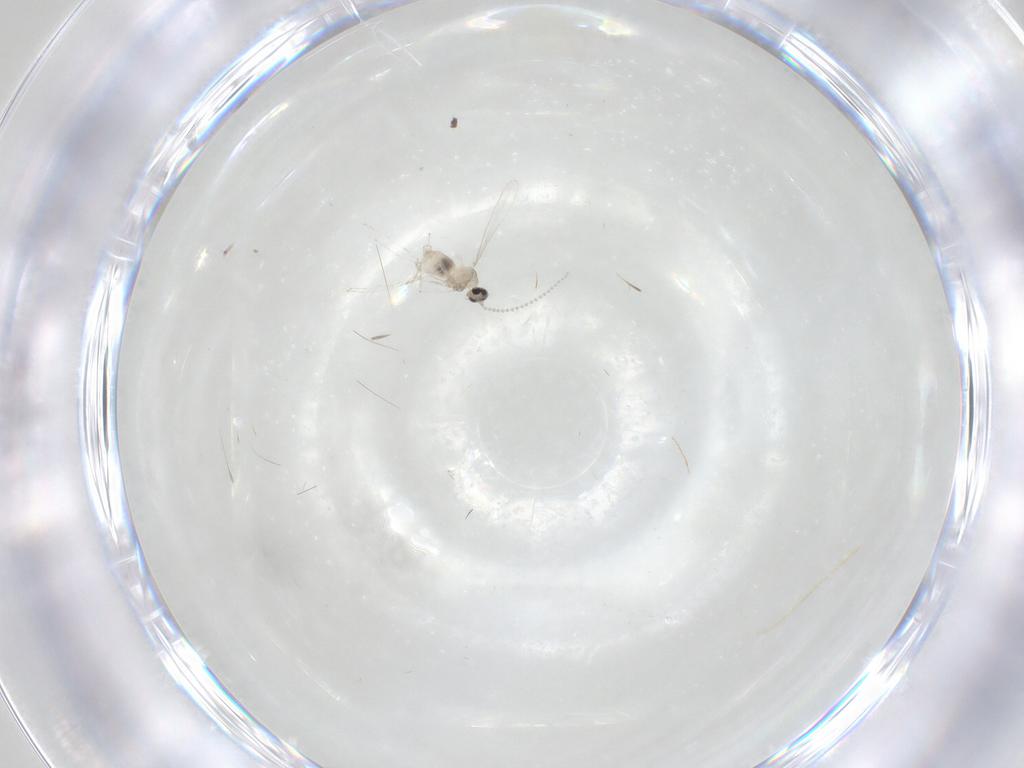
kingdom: Animalia
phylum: Arthropoda
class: Insecta
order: Diptera
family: Cecidomyiidae
